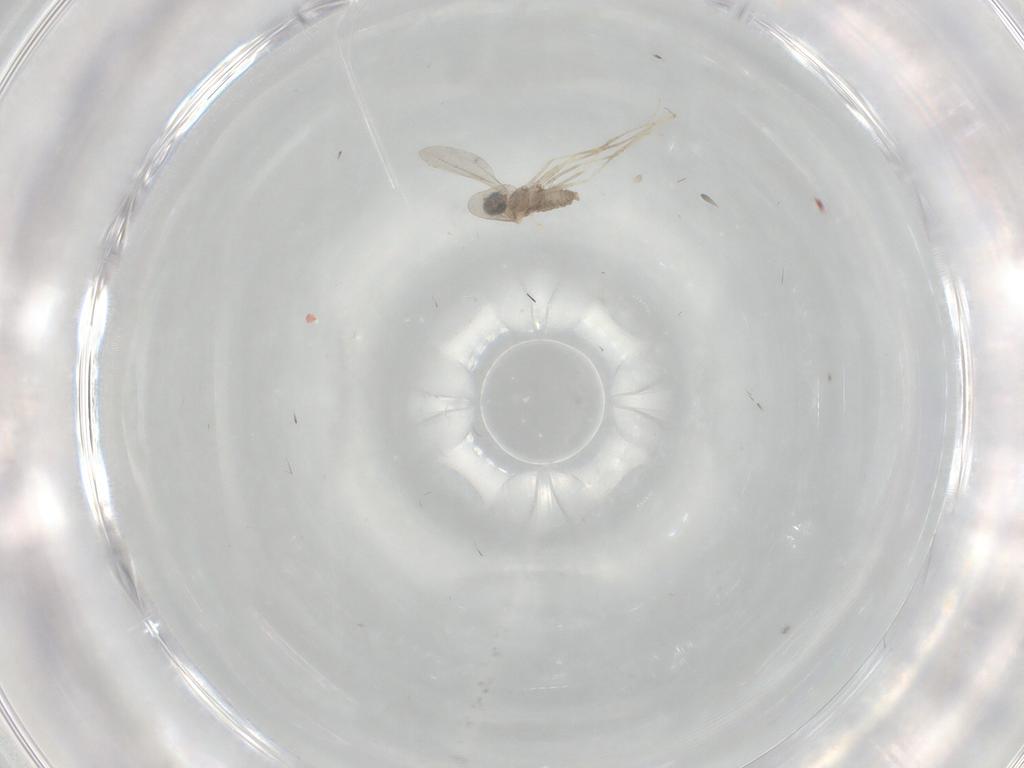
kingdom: Animalia
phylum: Arthropoda
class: Insecta
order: Diptera
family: Cecidomyiidae
